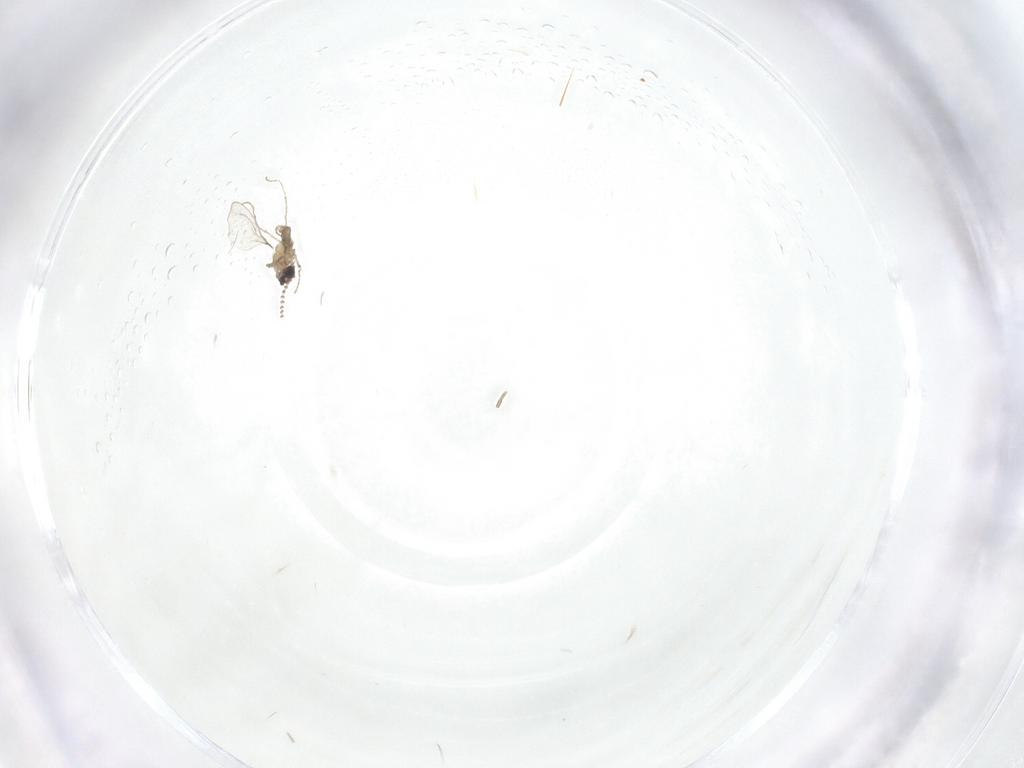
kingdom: Animalia
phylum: Arthropoda
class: Insecta
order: Diptera
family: Cecidomyiidae
